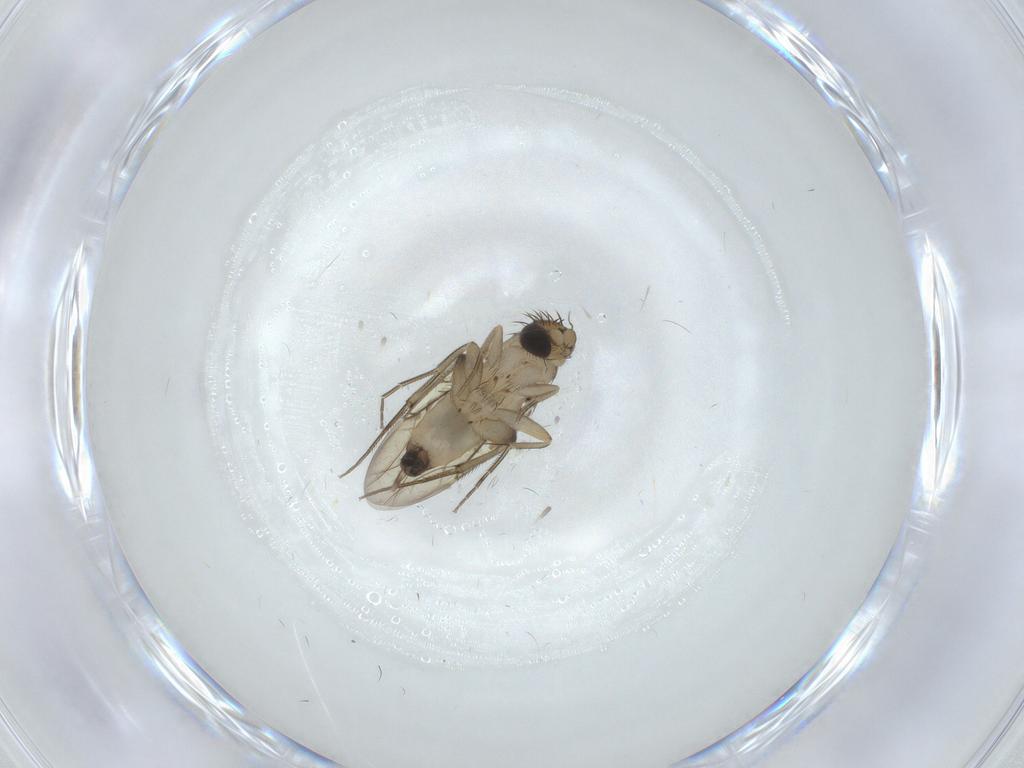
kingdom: Animalia
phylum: Arthropoda
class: Insecta
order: Diptera
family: Phoridae
